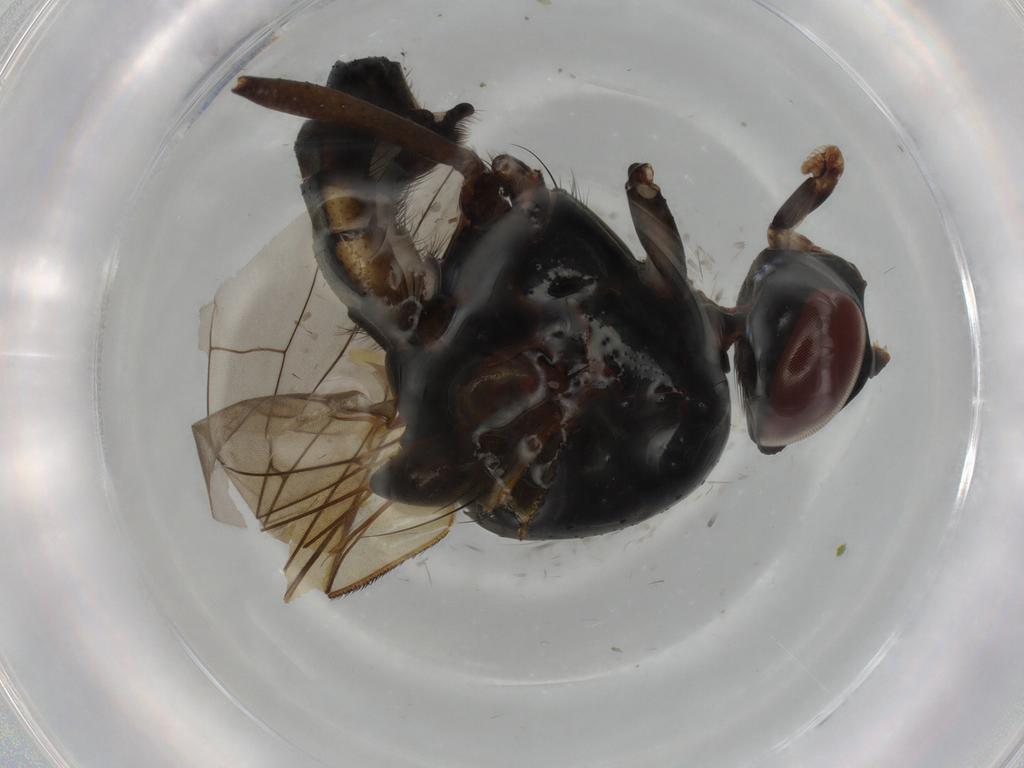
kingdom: Animalia
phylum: Arthropoda
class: Insecta
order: Diptera
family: Anthomyiidae
